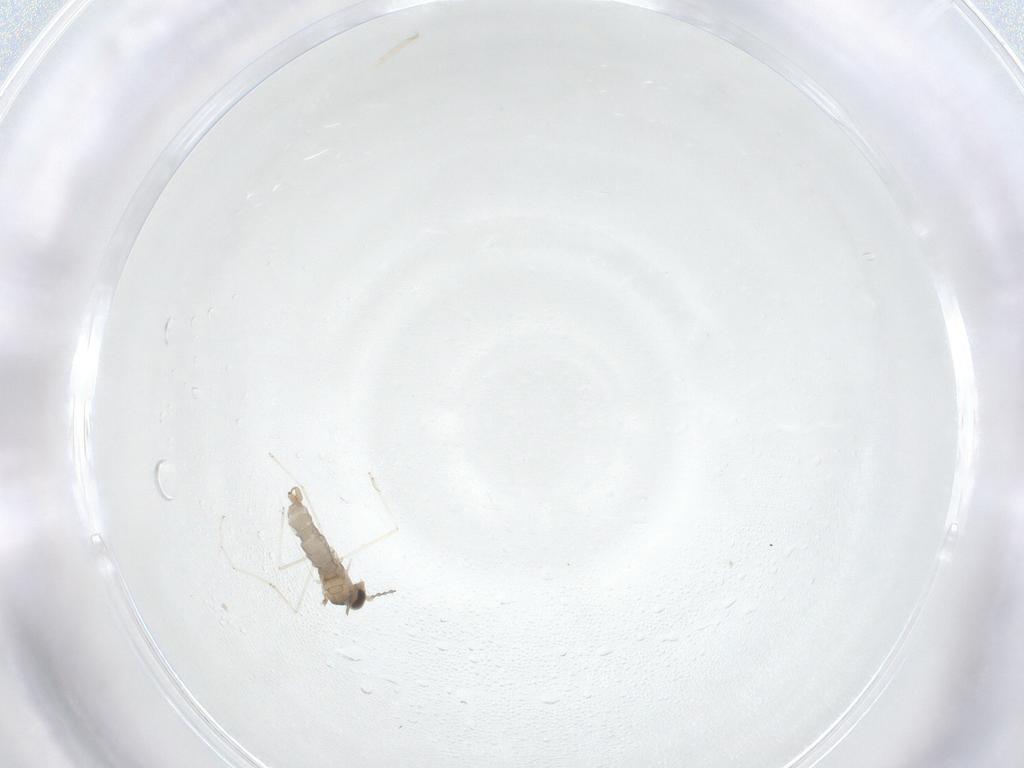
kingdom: Animalia
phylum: Arthropoda
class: Insecta
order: Diptera
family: Cecidomyiidae
